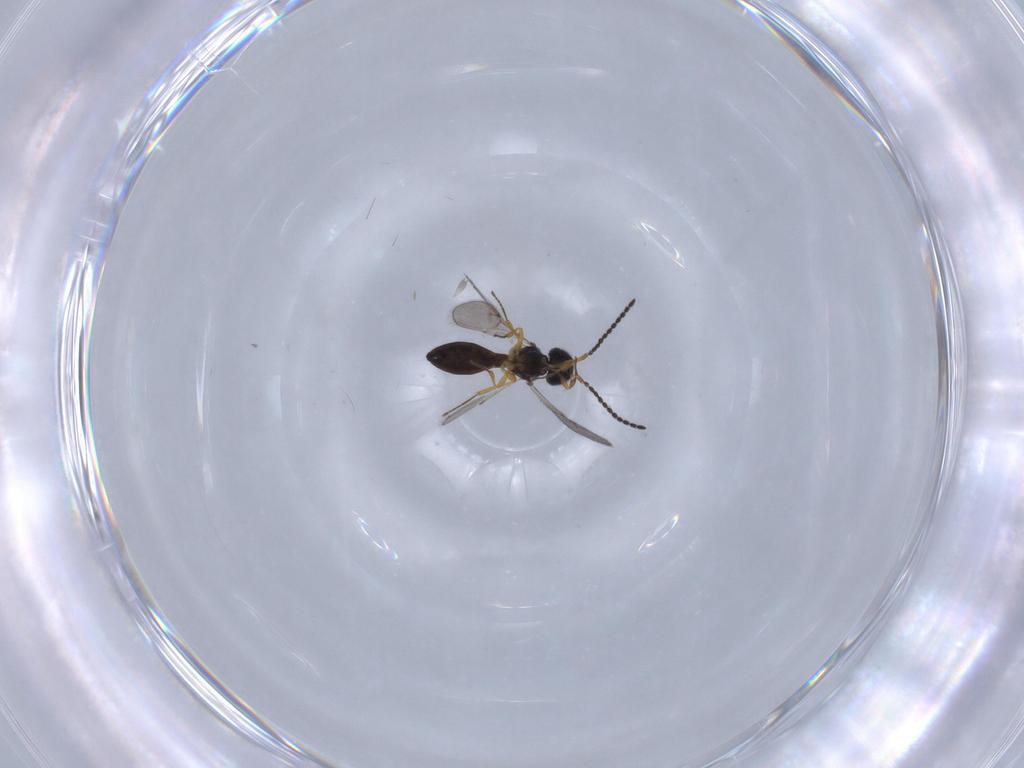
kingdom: Animalia
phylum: Arthropoda
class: Insecta
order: Hymenoptera
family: Scelionidae
